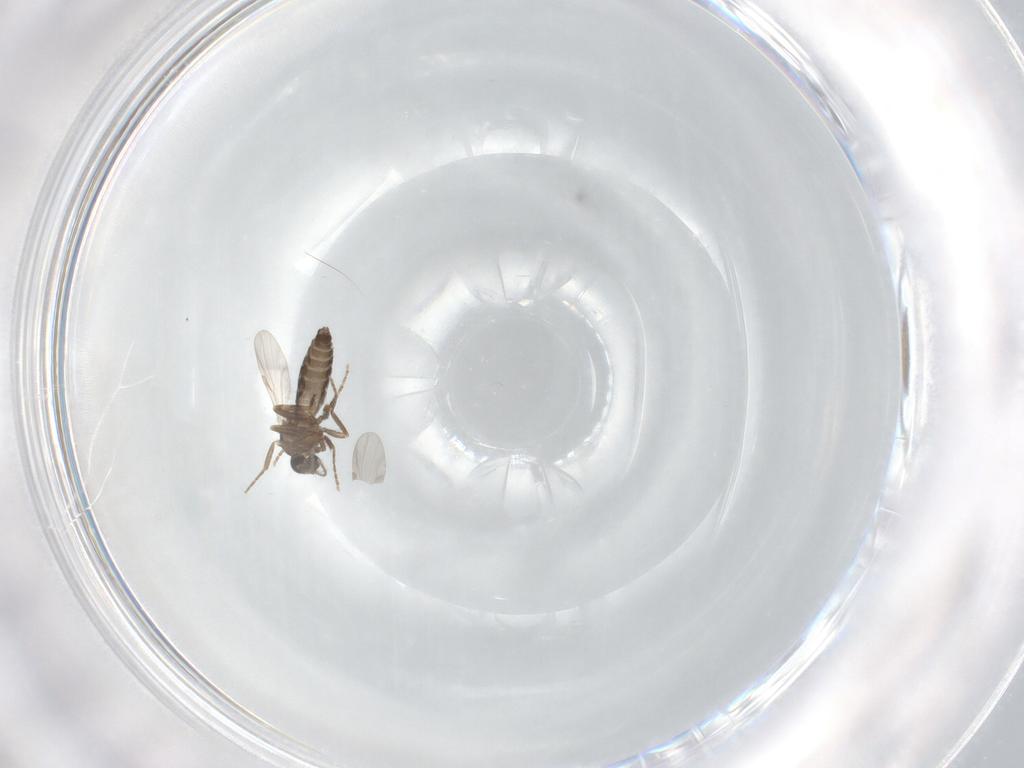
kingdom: Animalia
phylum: Arthropoda
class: Insecta
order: Diptera
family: Ceratopogonidae
